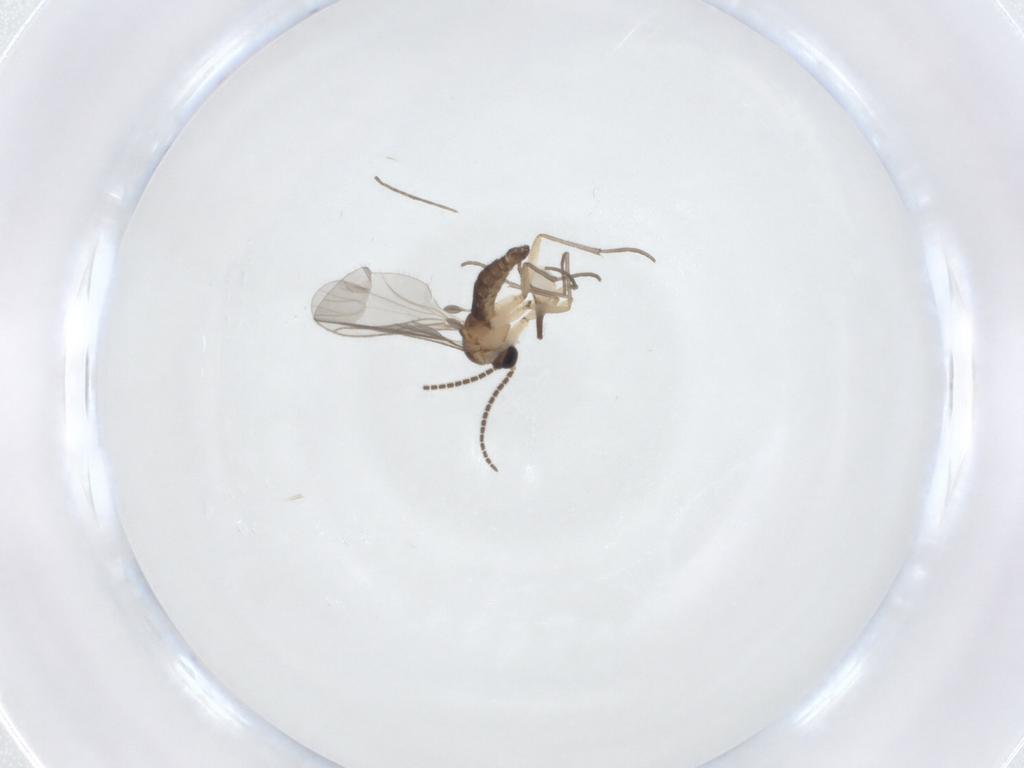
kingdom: Animalia
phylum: Arthropoda
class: Insecta
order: Diptera
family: Sciaridae
